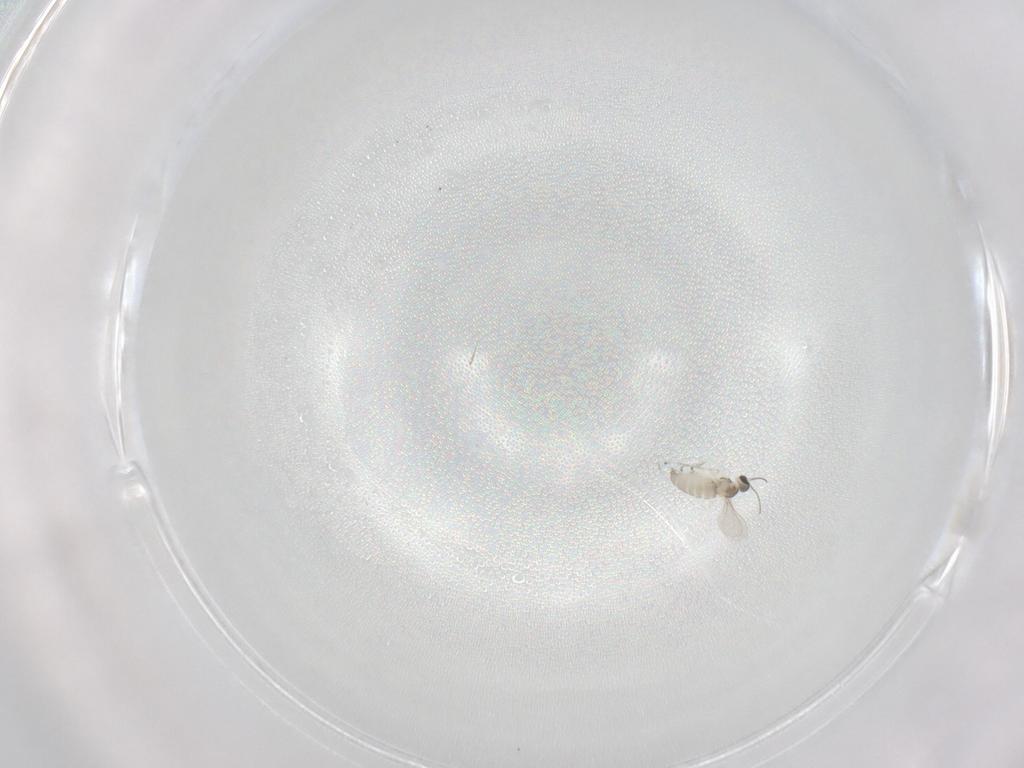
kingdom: Animalia
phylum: Arthropoda
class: Insecta
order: Diptera
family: Dolichopodidae
